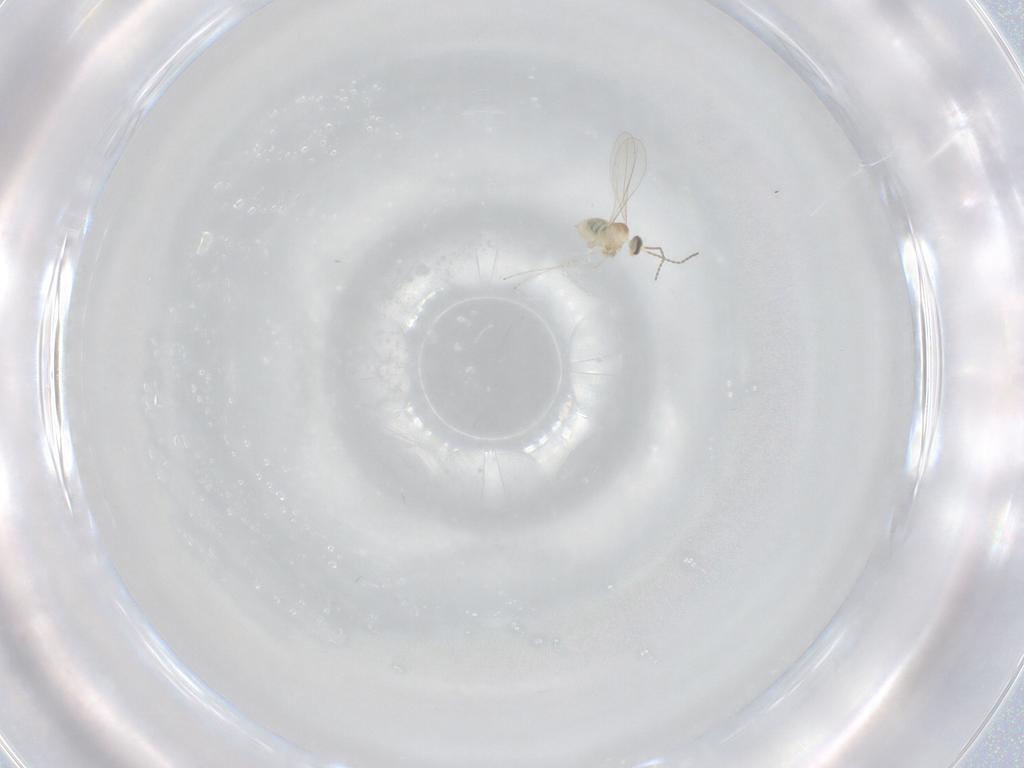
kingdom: Animalia
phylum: Arthropoda
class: Insecta
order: Diptera
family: Cecidomyiidae
